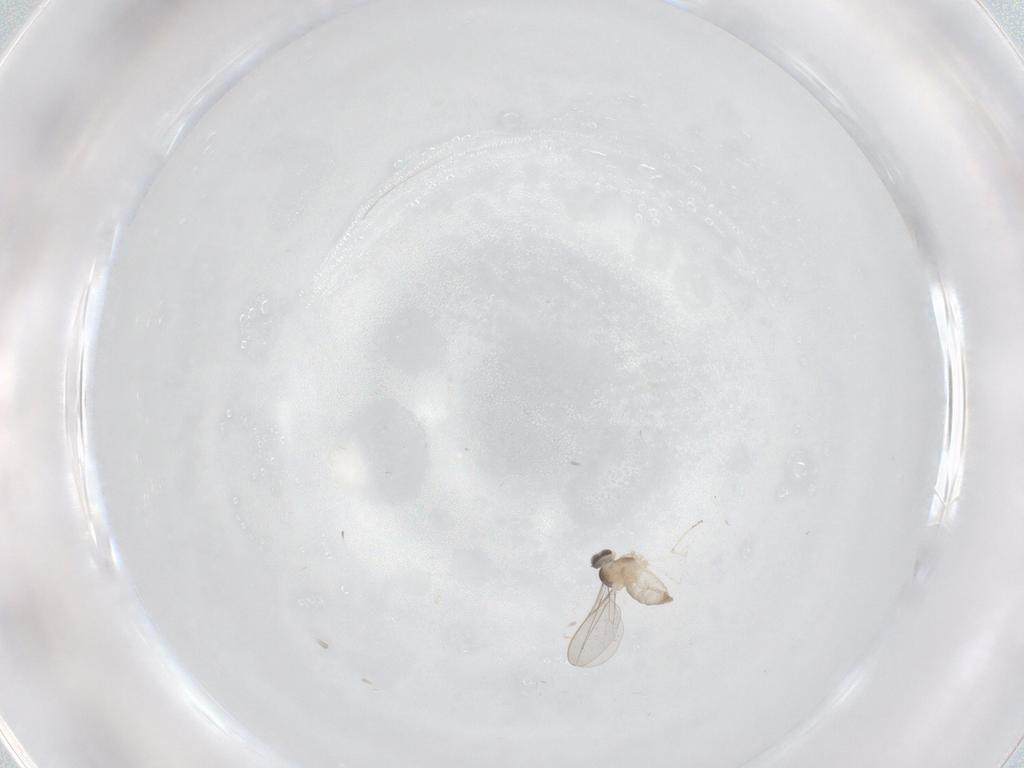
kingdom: Animalia
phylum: Arthropoda
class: Insecta
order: Diptera
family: Cecidomyiidae
